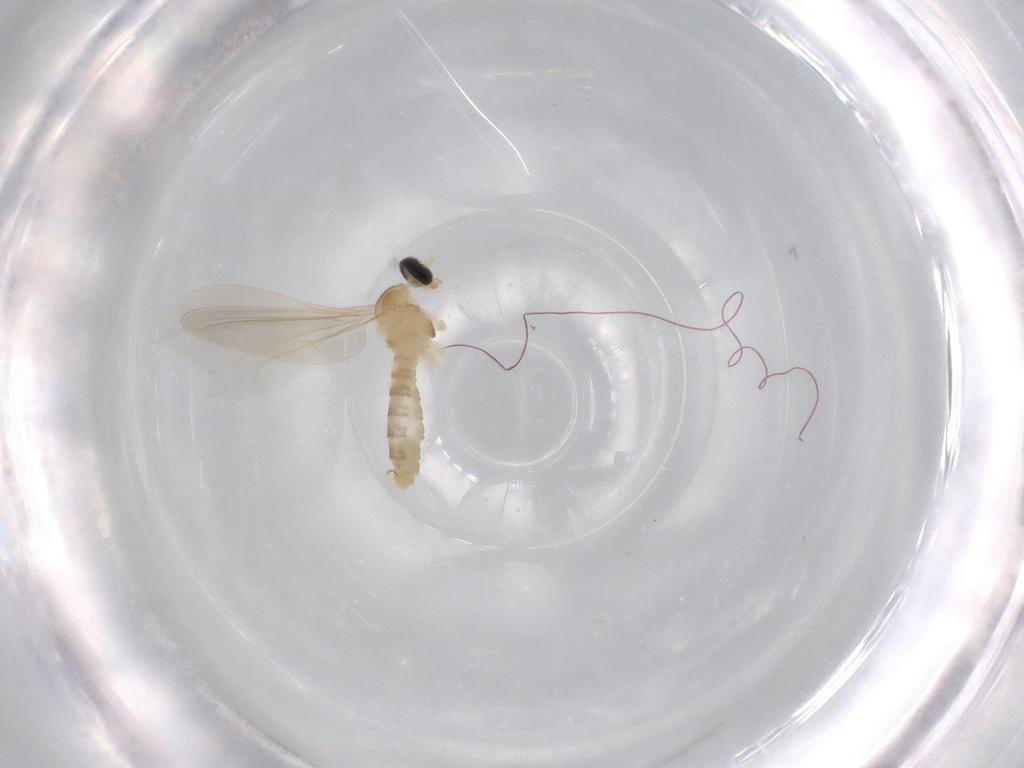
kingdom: Animalia
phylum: Arthropoda
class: Insecta
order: Diptera
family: Cecidomyiidae
